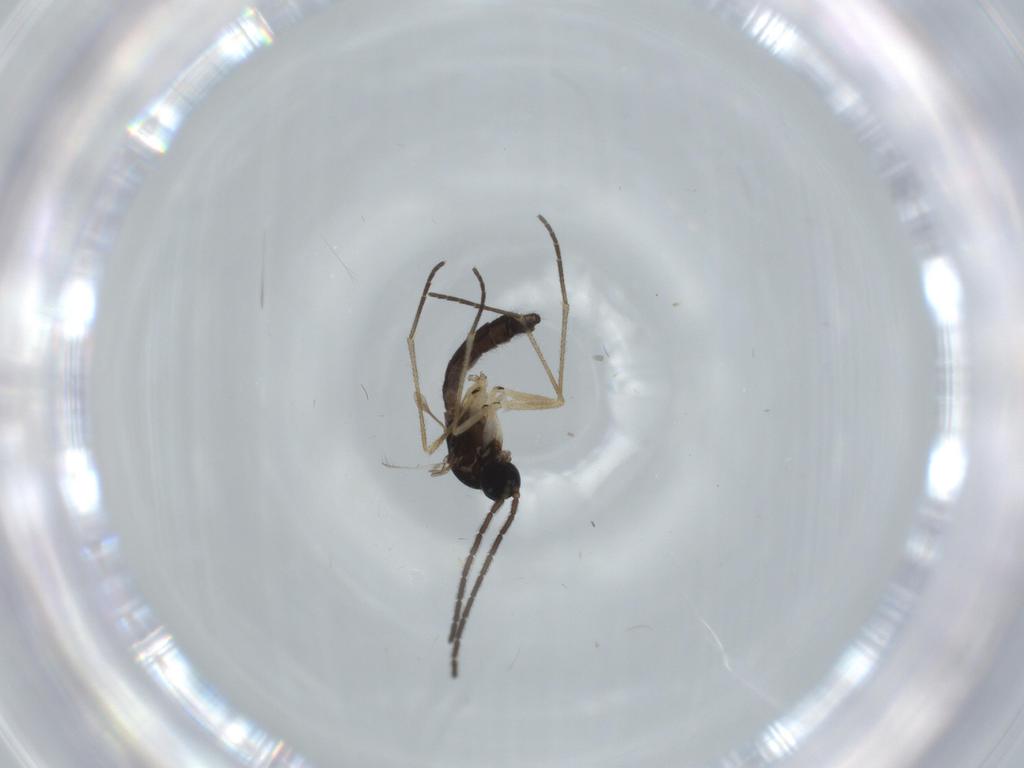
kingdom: Animalia
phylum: Arthropoda
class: Insecta
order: Diptera
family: Sciaridae
